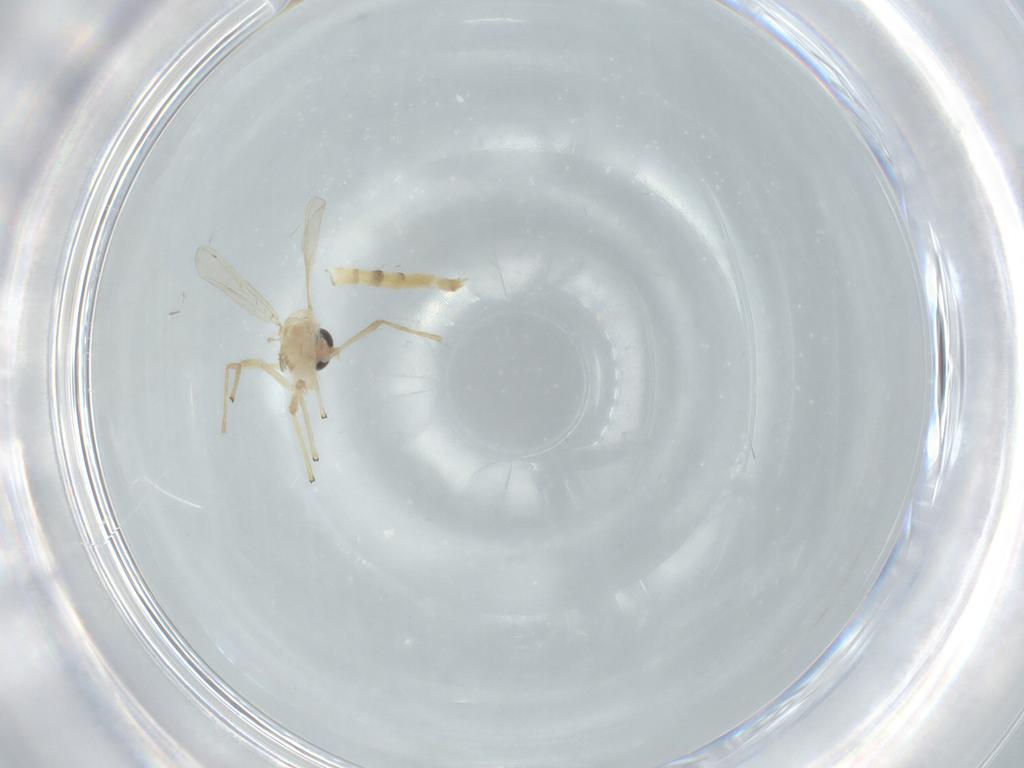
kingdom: Animalia
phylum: Arthropoda
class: Insecta
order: Diptera
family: Chironomidae
